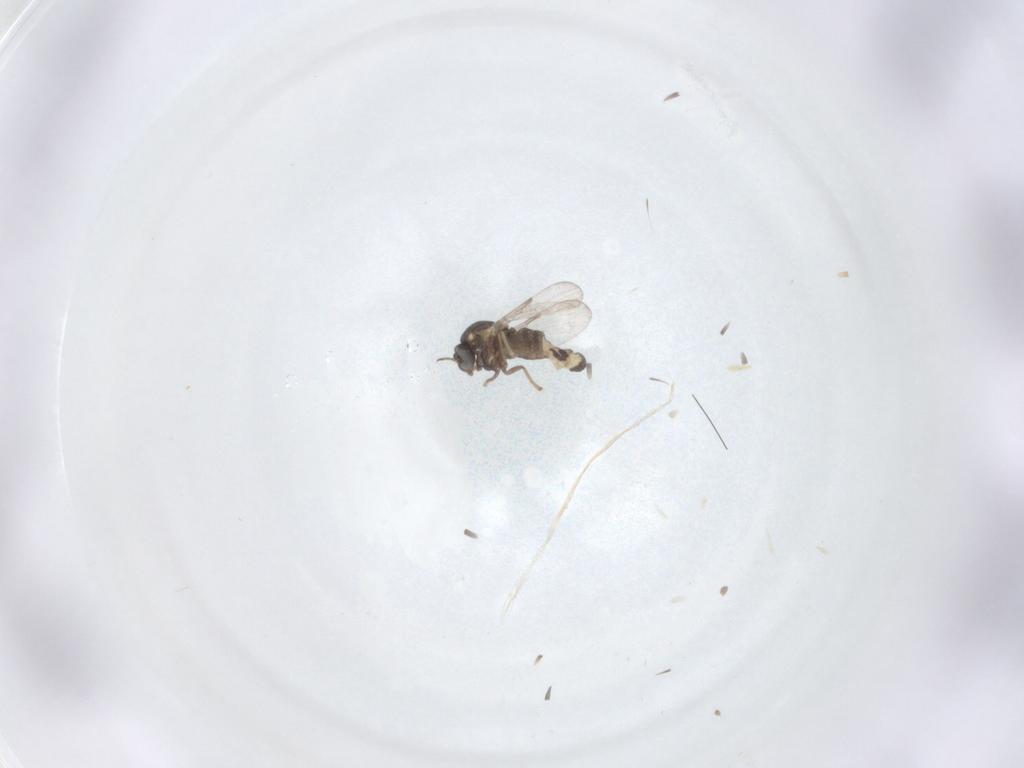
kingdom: Animalia
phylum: Arthropoda
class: Insecta
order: Diptera
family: Ceratopogonidae
